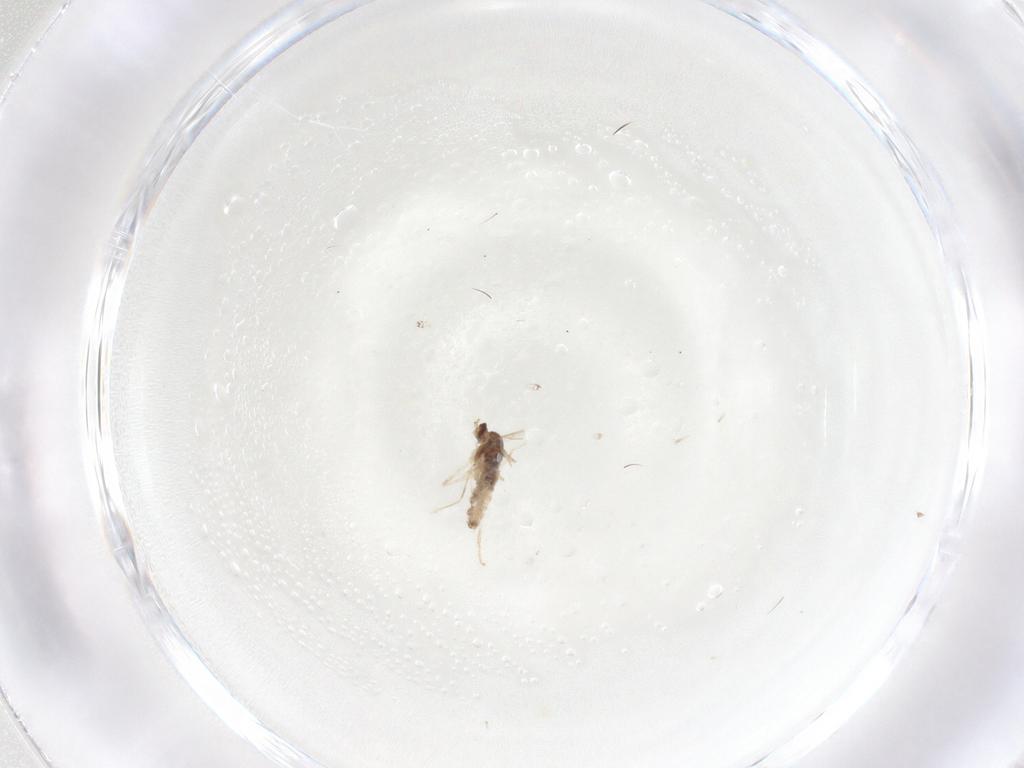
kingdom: Animalia
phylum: Arthropoda
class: Insecta
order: Diptera
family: Cecidomyiidae
